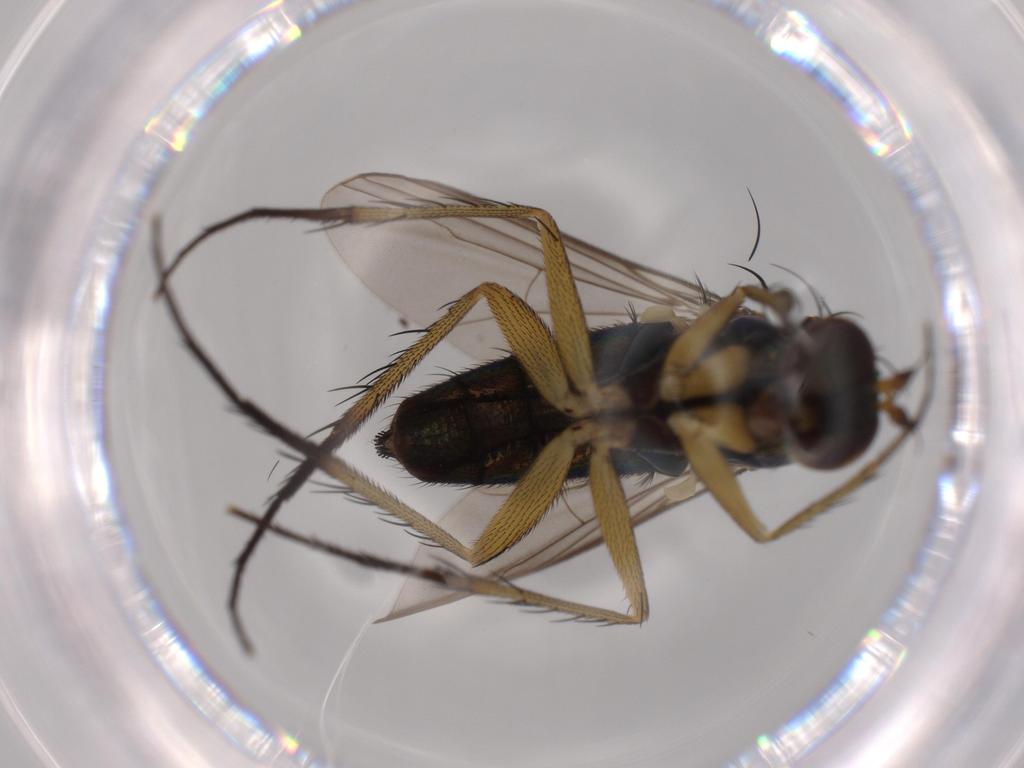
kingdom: Animalia
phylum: Arthropoda
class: Insecta
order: Diptera
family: Dolichopodidae
